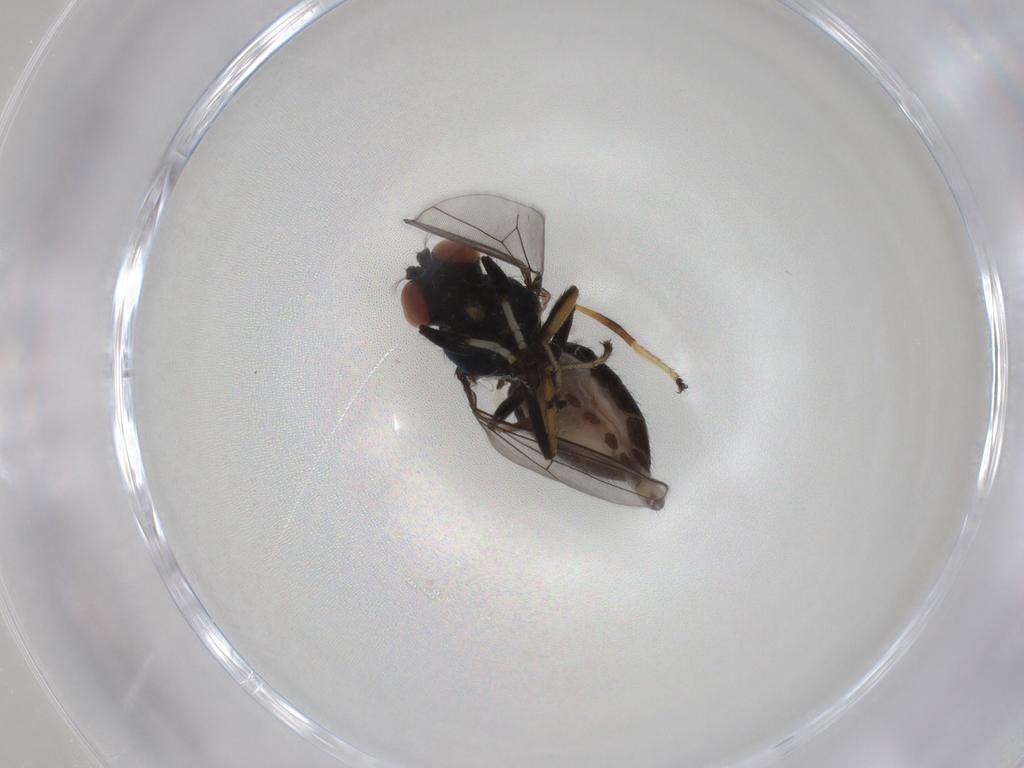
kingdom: Animalia
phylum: Arthropoda
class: Insecta
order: Diptera
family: Ephydridae
